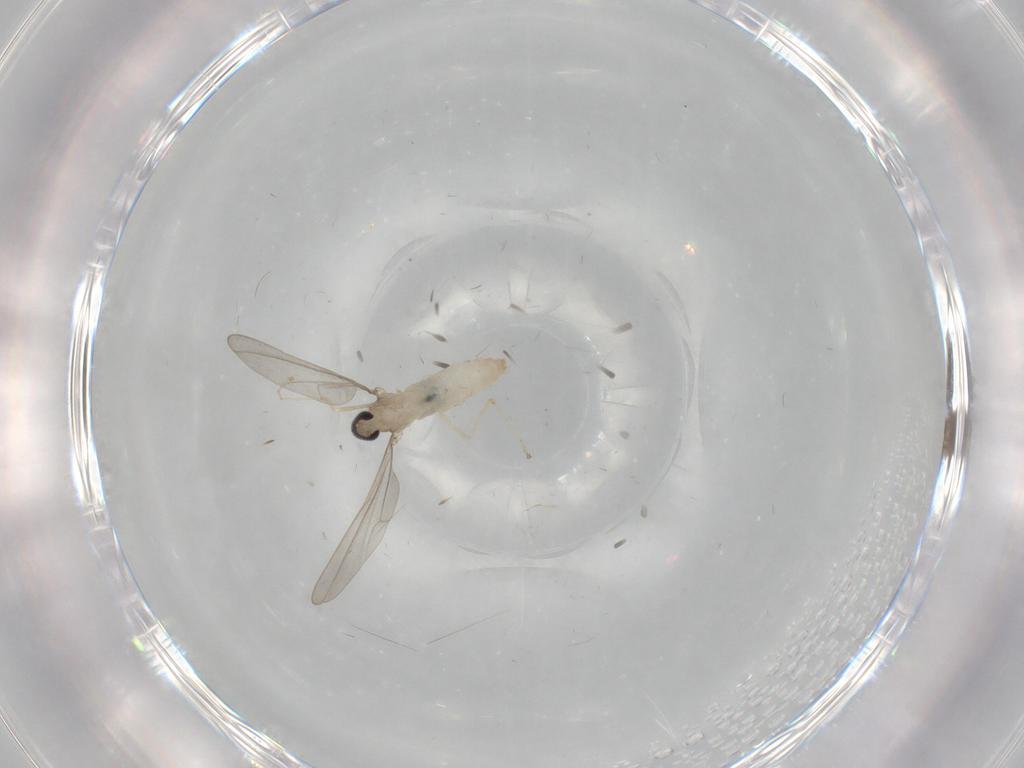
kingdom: Animalia
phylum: Arthropoda
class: Insecta
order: Diptera
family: Cecidomyiidae
